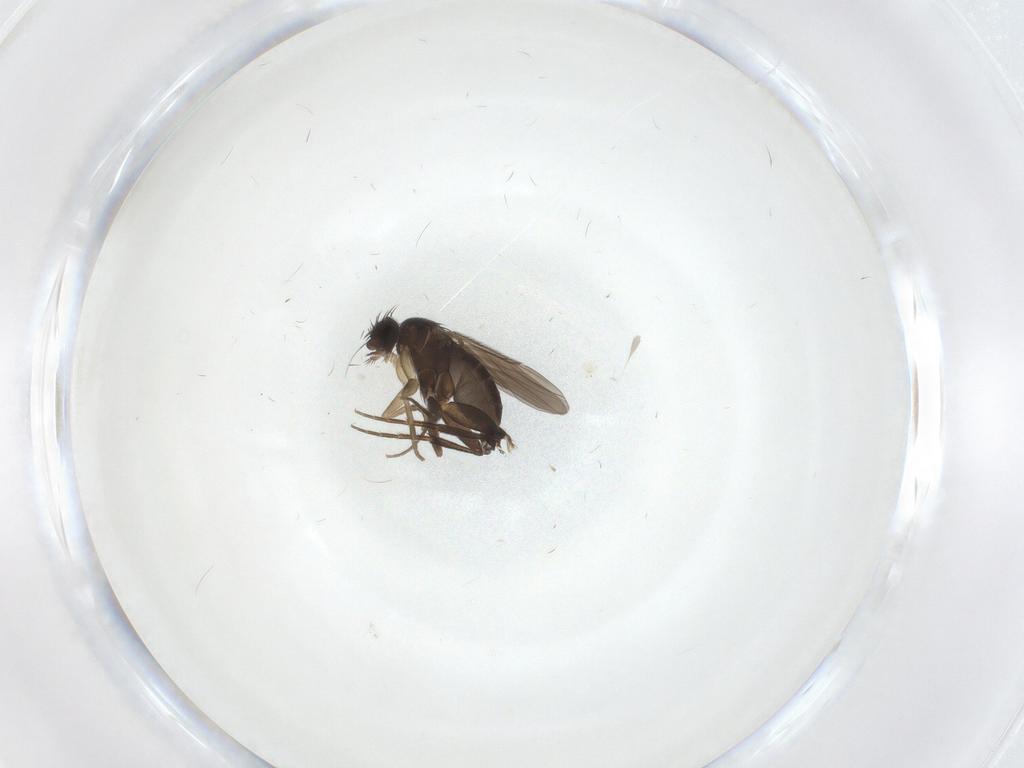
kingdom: Animalia
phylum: Arthropoda
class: Insecta
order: Diptera
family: Phoridae
